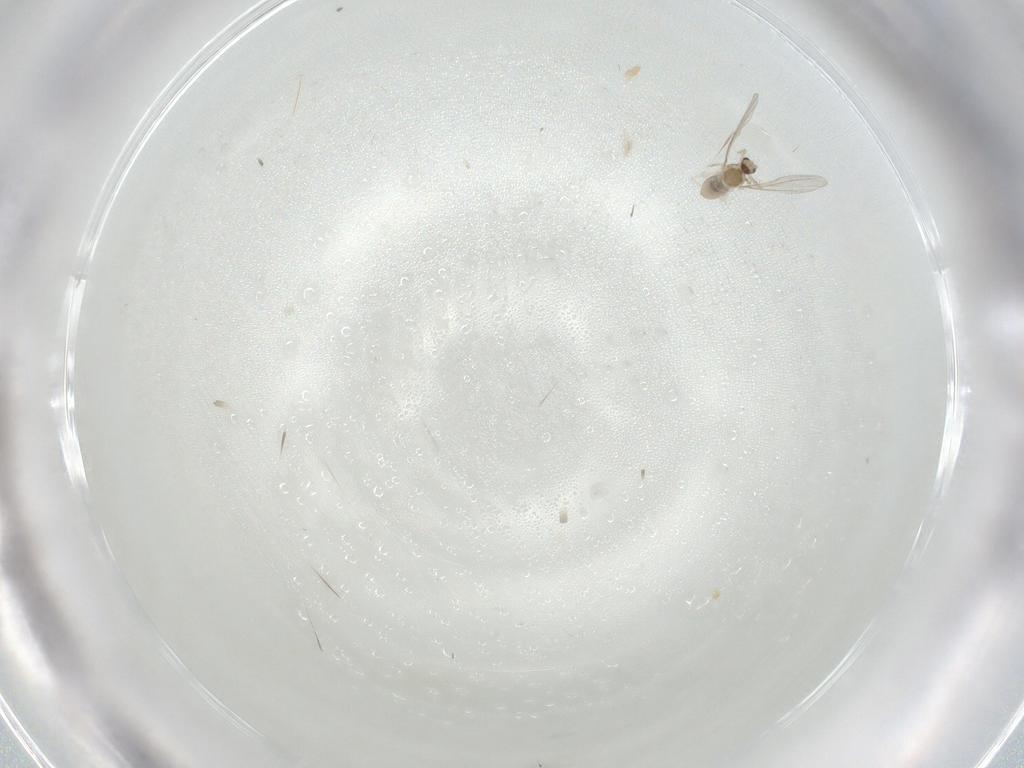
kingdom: Animalia
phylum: Arthropoda
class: Insecta
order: Diptera
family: Cecidomyiidae
